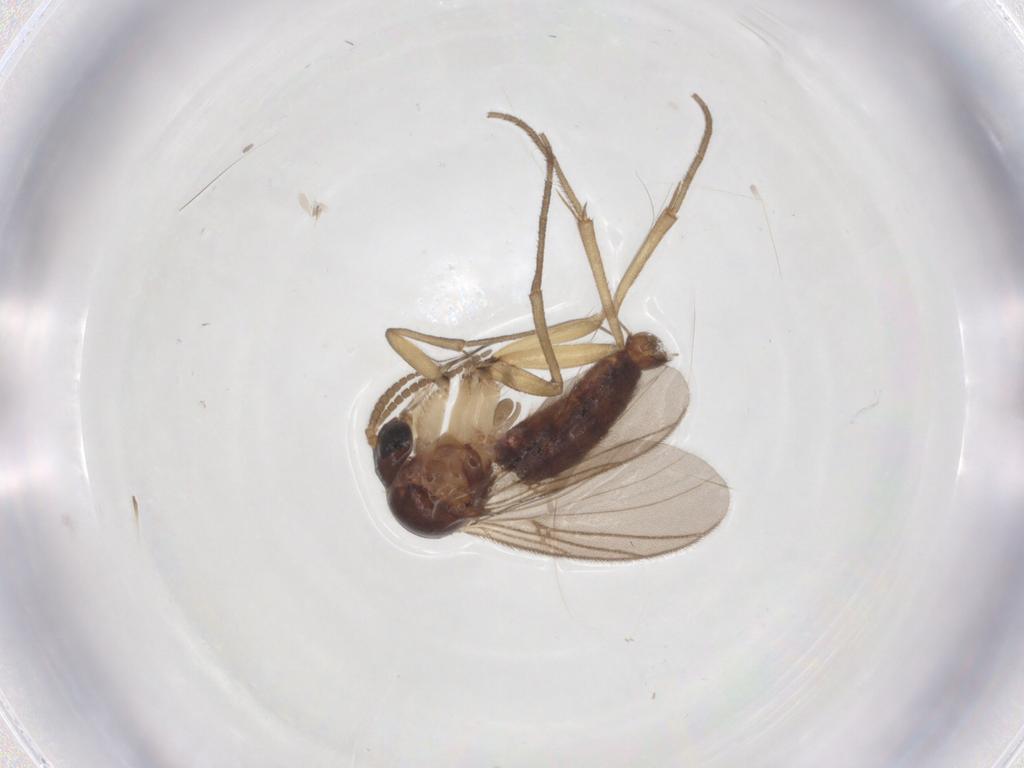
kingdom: Animalia
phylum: Arthropoda
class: Insecta
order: Diptera
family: Mycetophilidae
